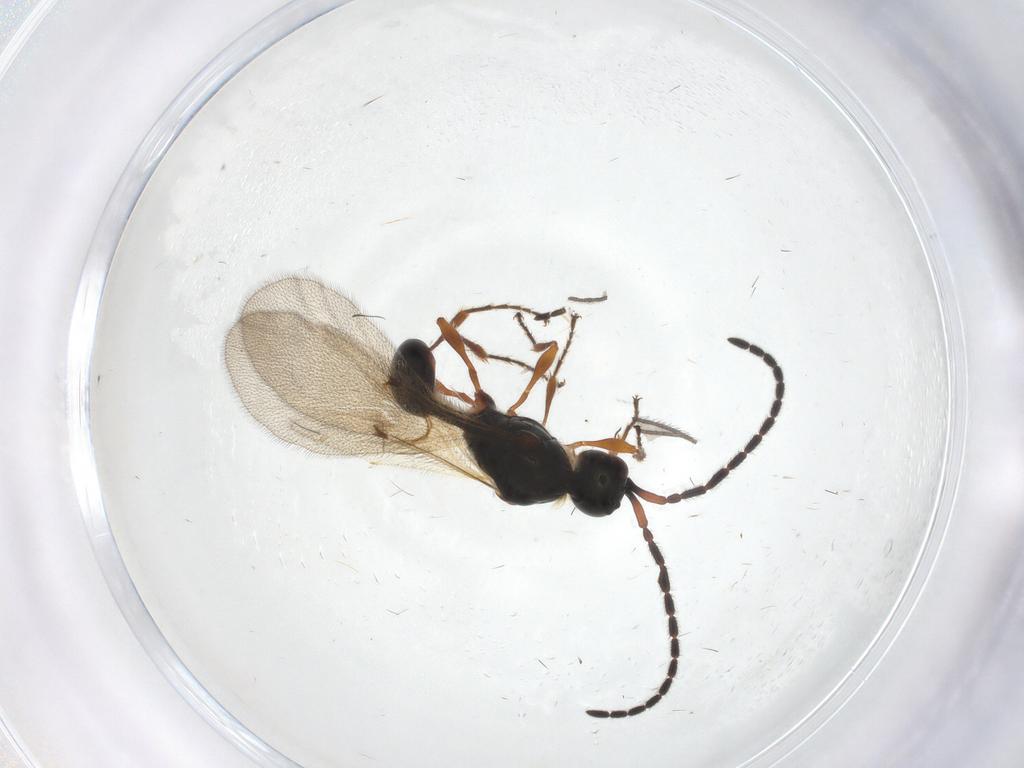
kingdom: Animalia
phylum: Arthropoda
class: Insecta
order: Hymenoptera
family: Diapriidae
